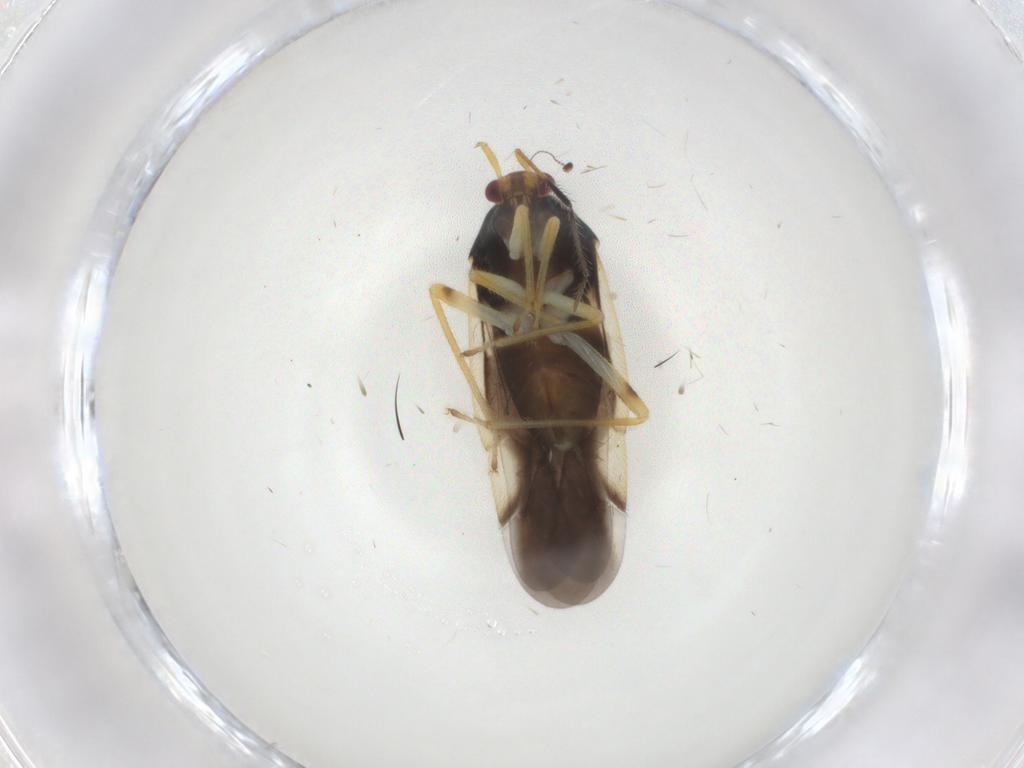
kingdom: Animalia
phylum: Arthropoda
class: Insecta
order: Hemiptera
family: Miridae
